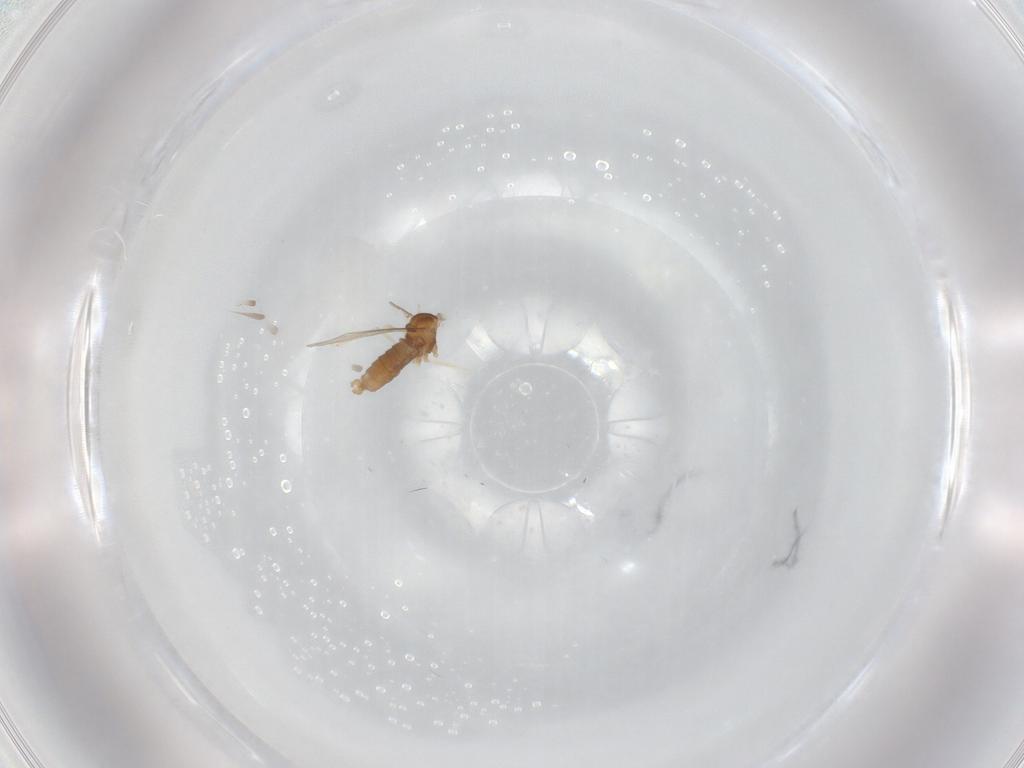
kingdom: Animalia
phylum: Arthropoda
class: Insecta
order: Diptera
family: Cecidomyiidae
